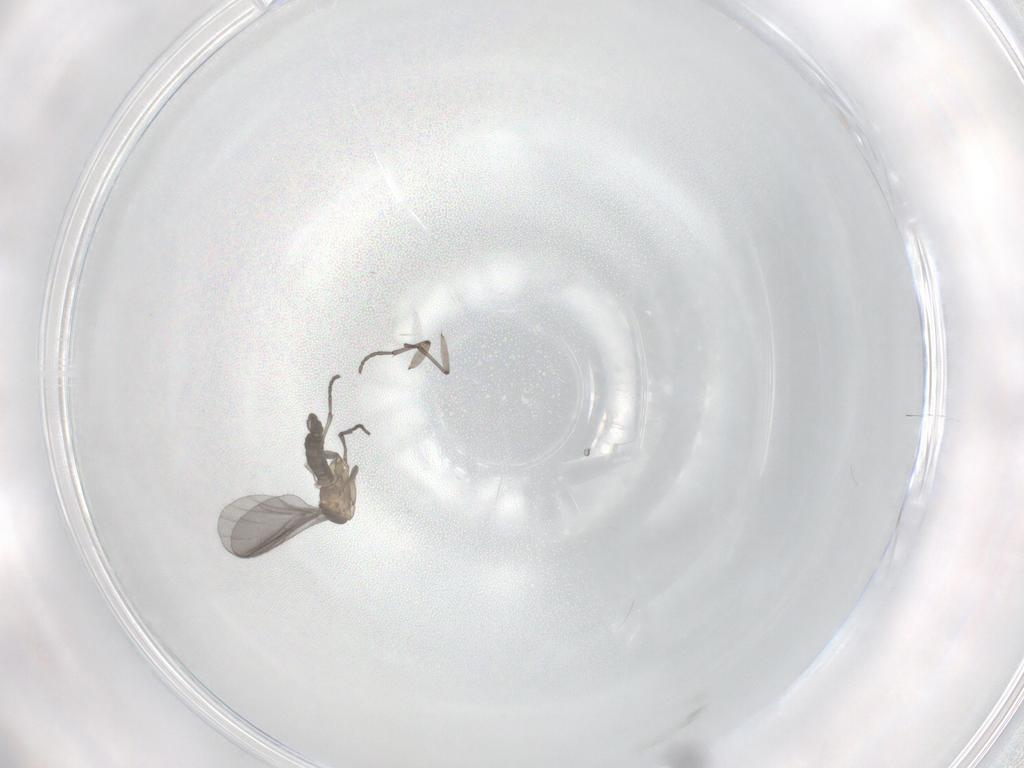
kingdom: Animalia
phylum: Arthropoda
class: Insecta
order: Diptera
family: Sciaridae
